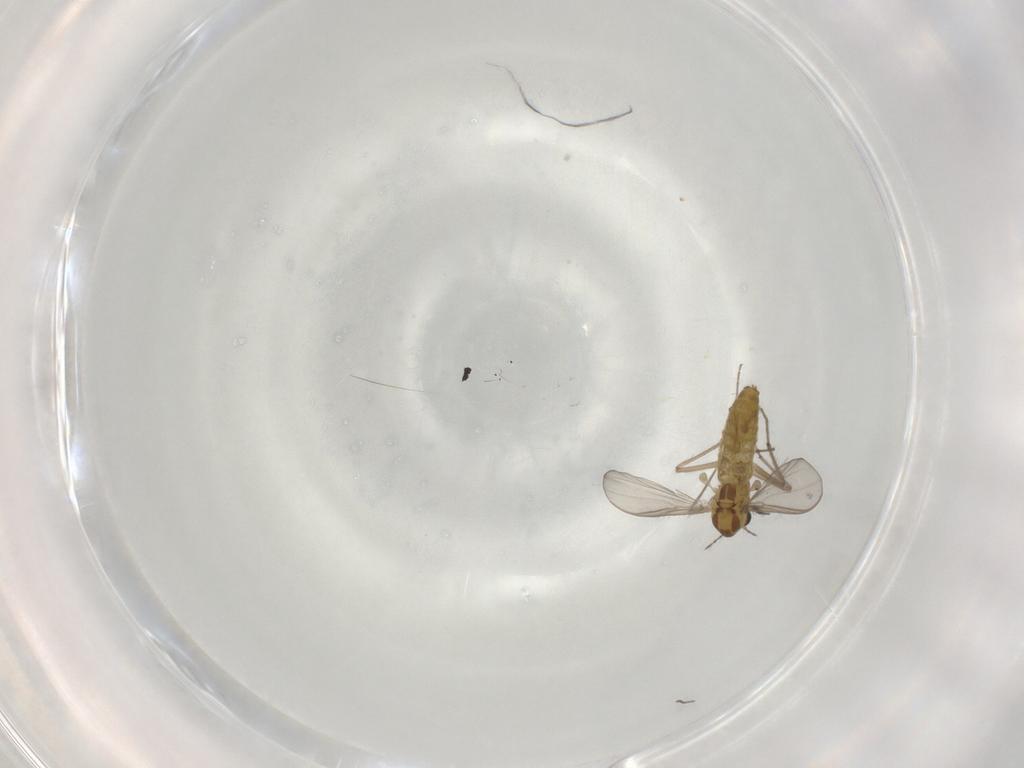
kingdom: Animalia
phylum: Arthropoda
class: Insecta
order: Diptera
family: Chironomidae
